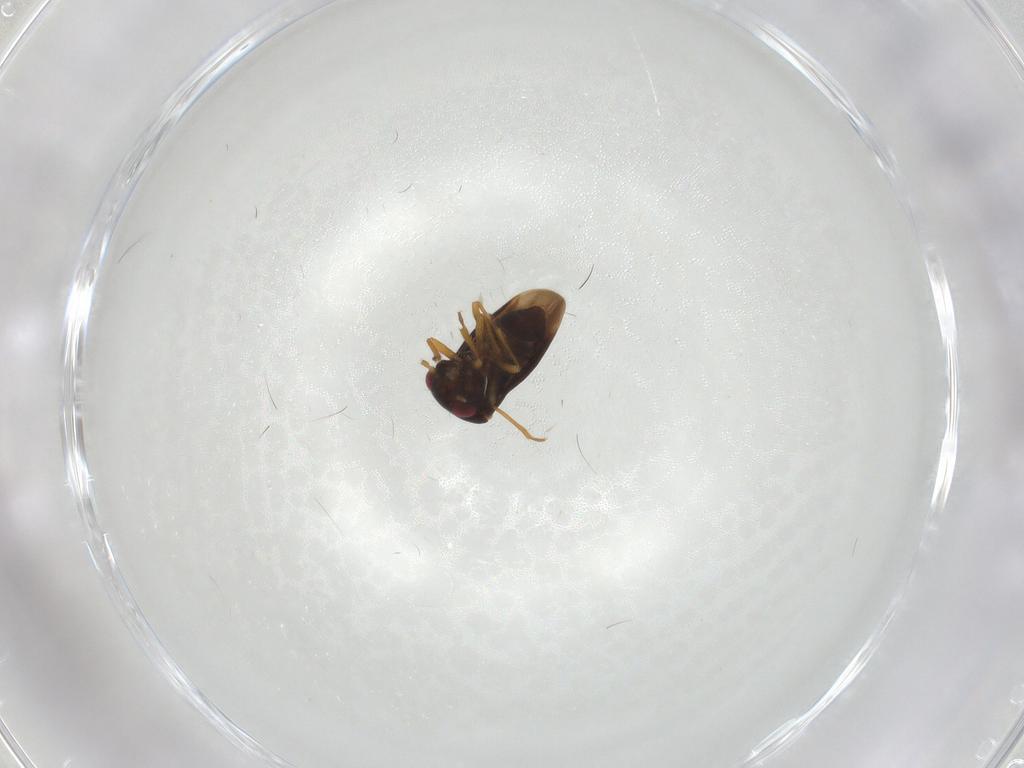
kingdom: Animalia
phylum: Arthropoda
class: Insecta
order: Hemiptera
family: Schizopteridae
